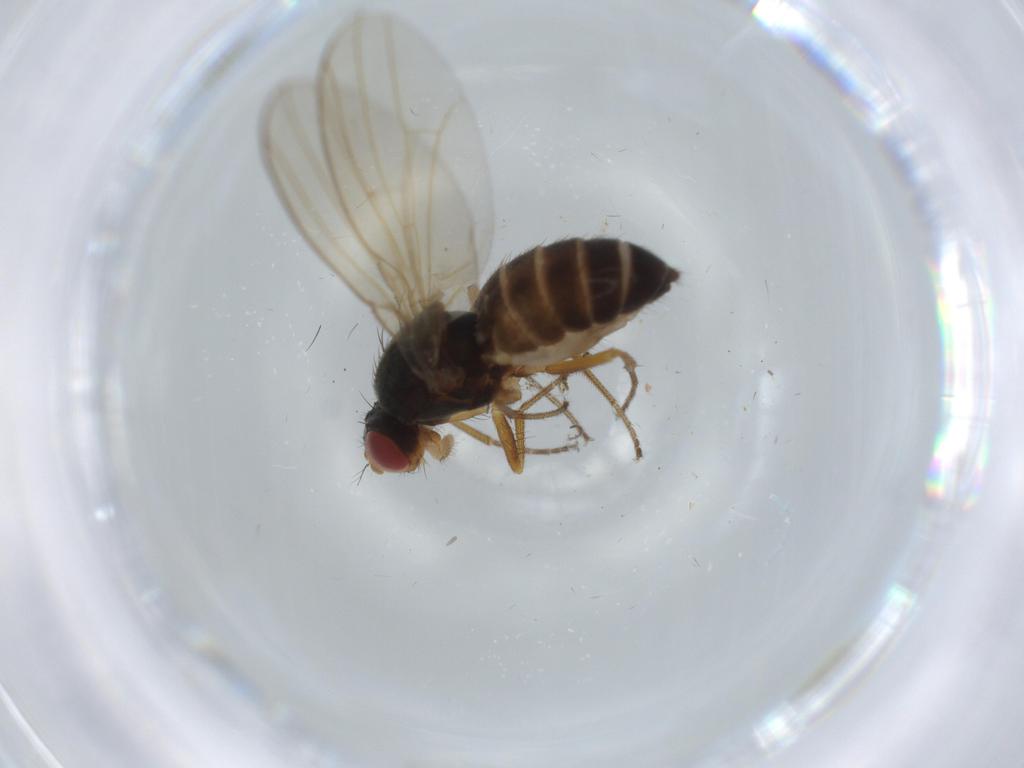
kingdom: Animalia
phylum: Arthropoda
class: Insecta
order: Diptera
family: Drosophilidae
